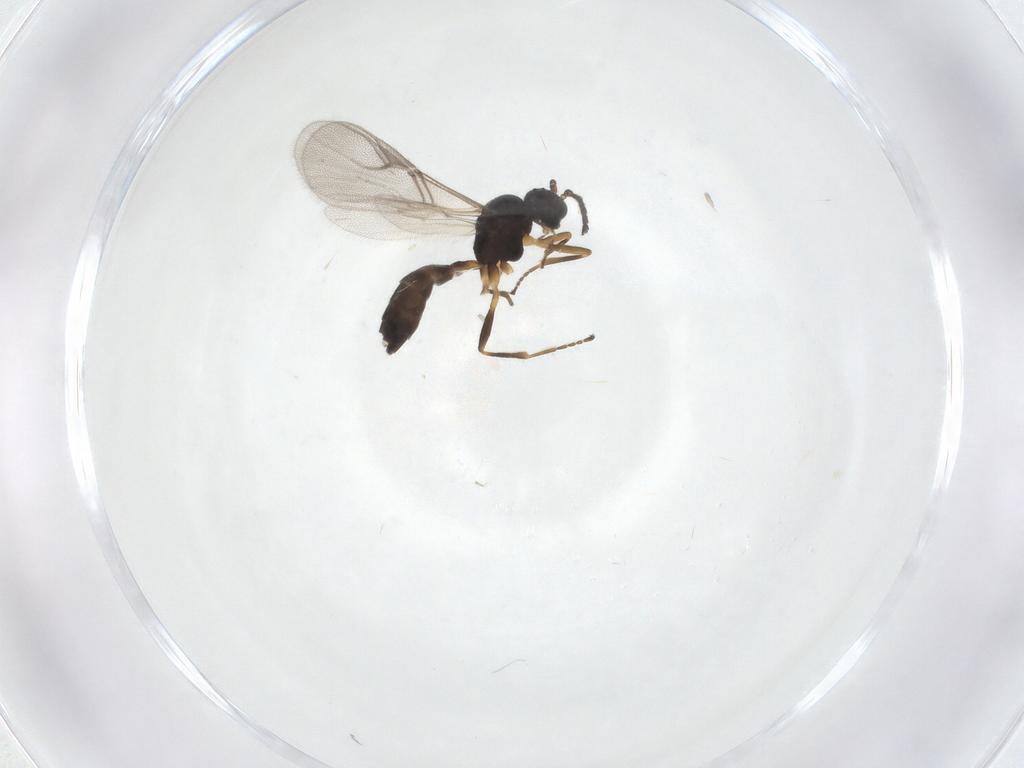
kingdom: Animalia
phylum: Arthropoda
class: Insecta
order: Hymenoptera
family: Braconidae
